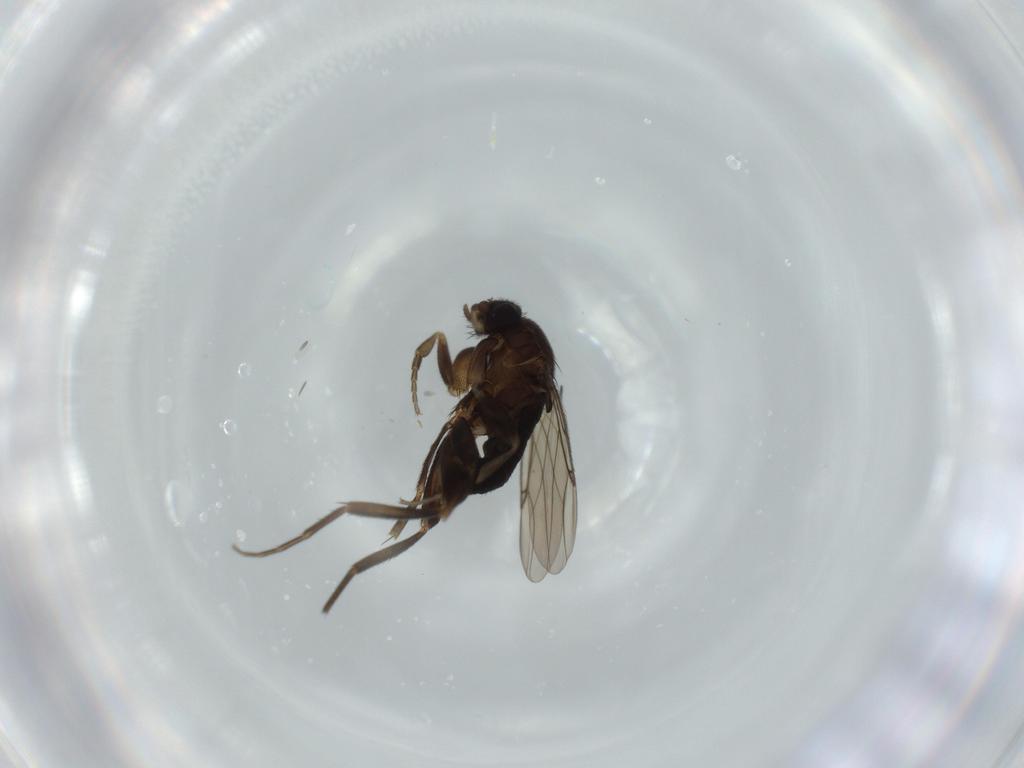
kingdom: Animalia
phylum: Arthropoda
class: Insecta
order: Diptera
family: Phoridae
